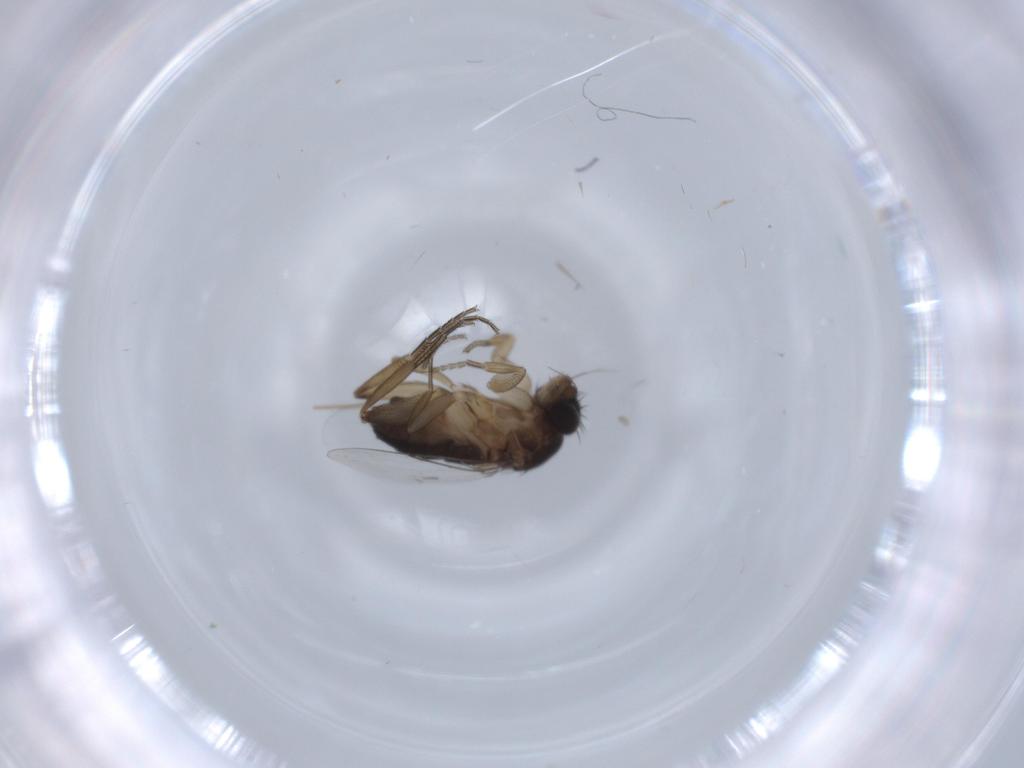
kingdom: Animalia
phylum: Arthropoda
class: Insecta
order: Diptera
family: Phoridae
